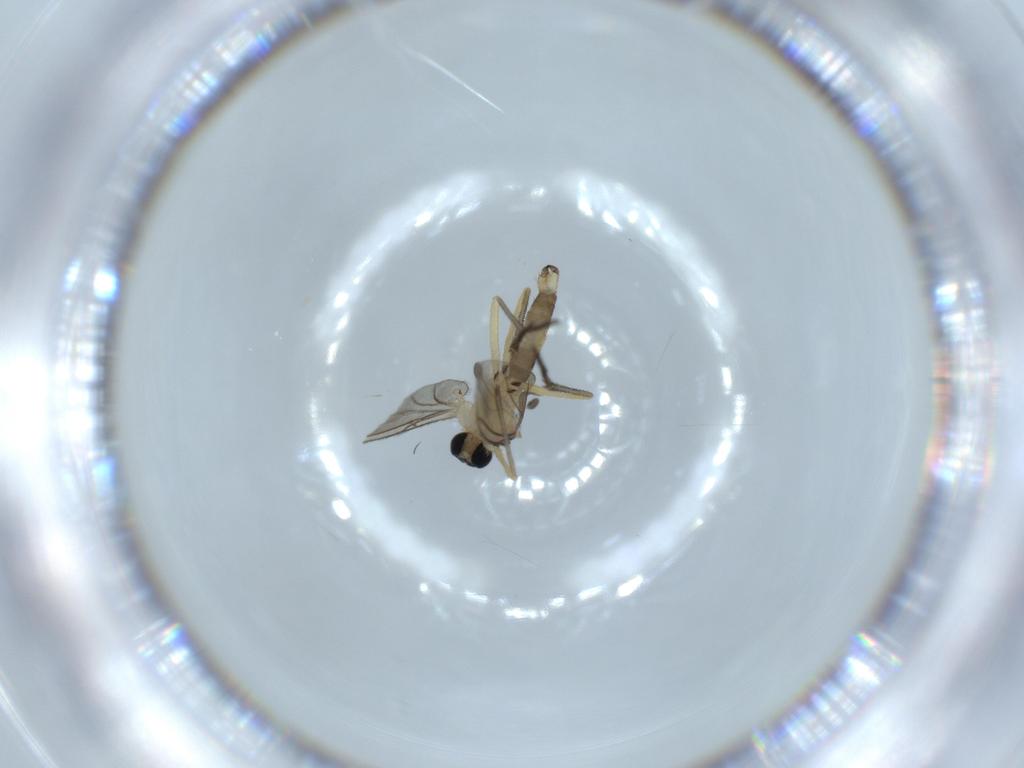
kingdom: Animalia
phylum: Arthropoda
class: Insecta
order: Diptera
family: Sciaridae
